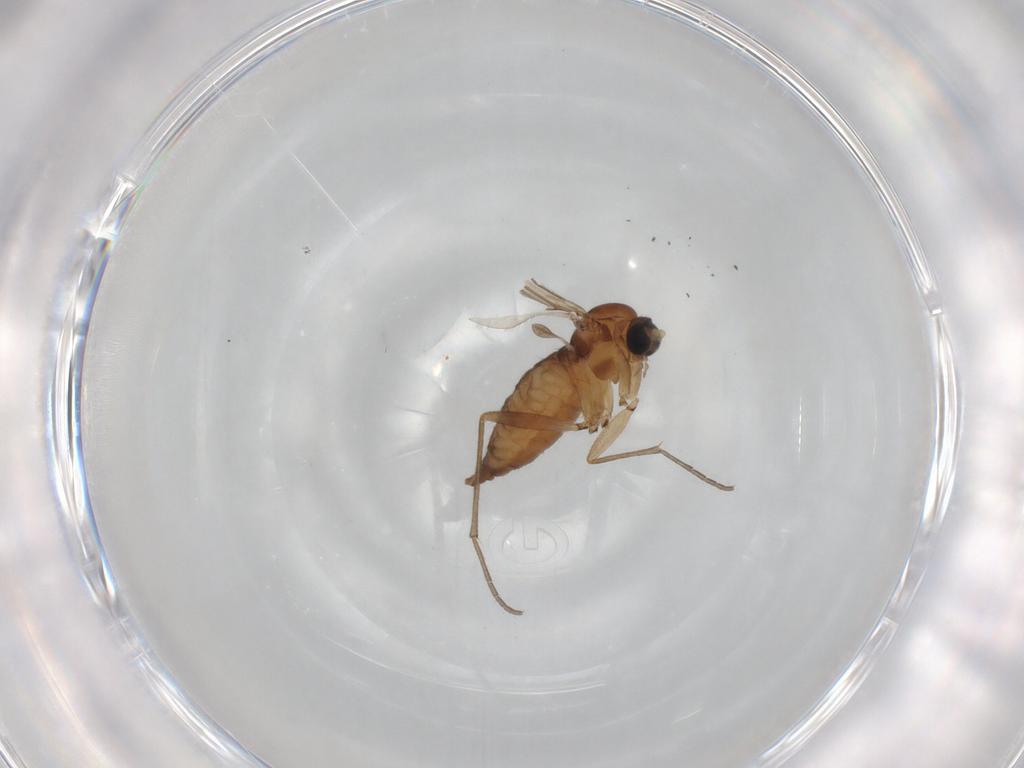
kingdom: Animalia
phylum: Arthropoda
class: Insecta
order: Diptera
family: Sciaridae
